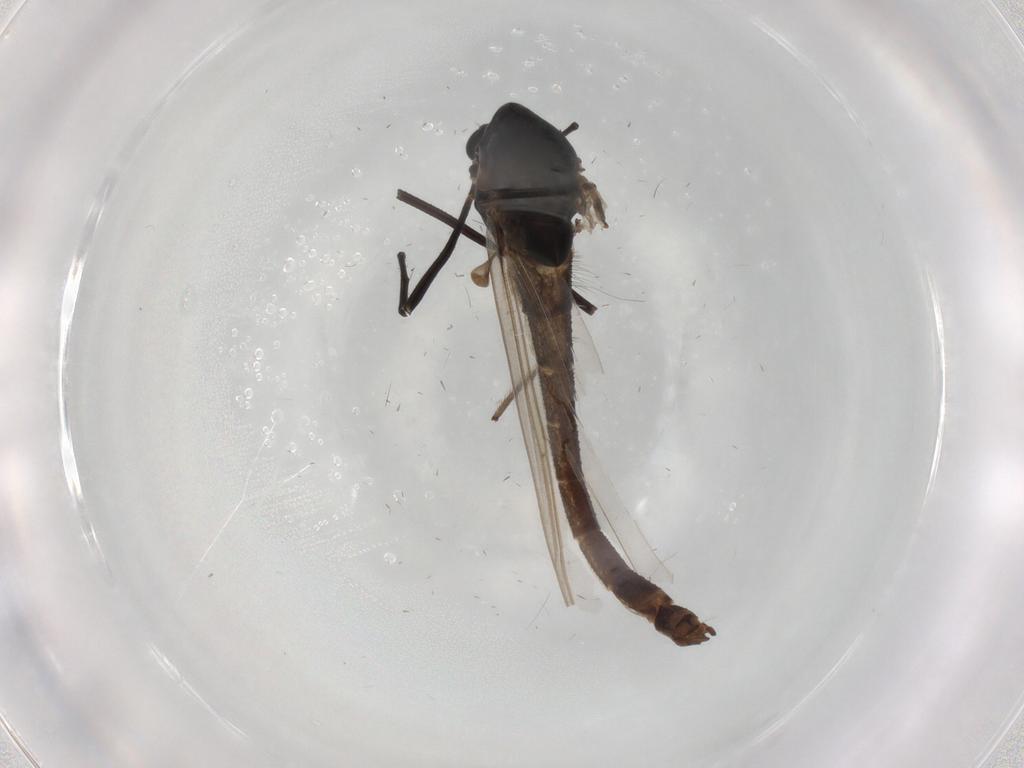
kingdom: Animalia
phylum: Arthropoda
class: Insecta
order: Diptera
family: Chironomidae
